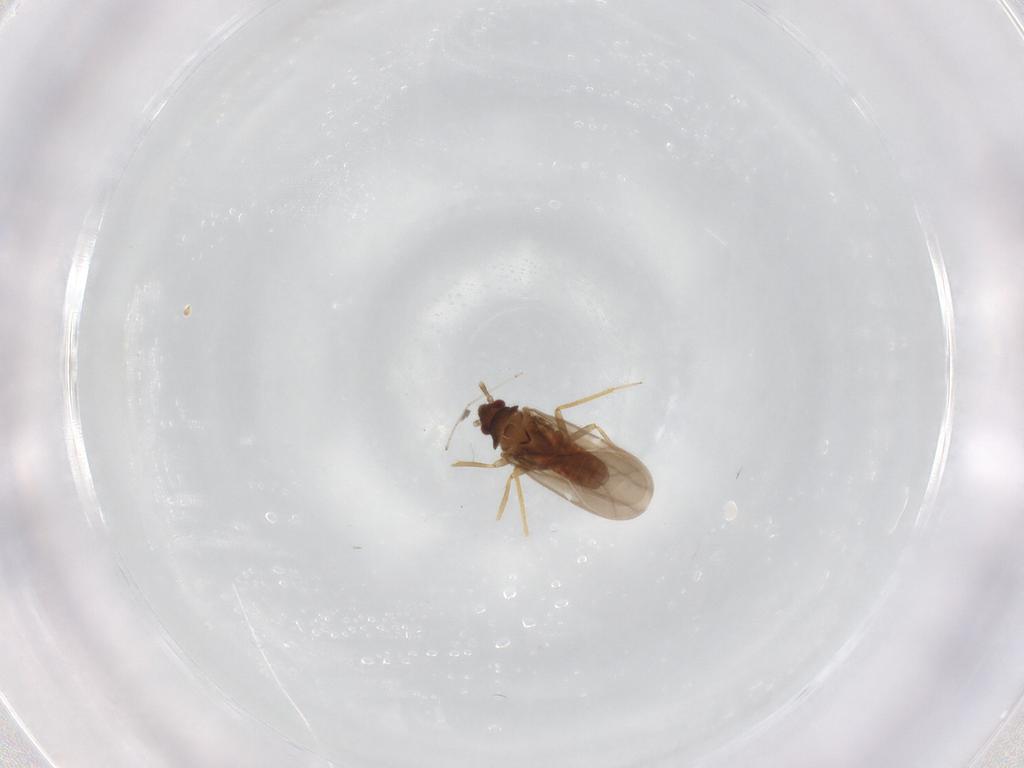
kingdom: Animalia
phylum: Arthropoda
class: Insecta
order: Hemiptera
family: Ceratocombidae
